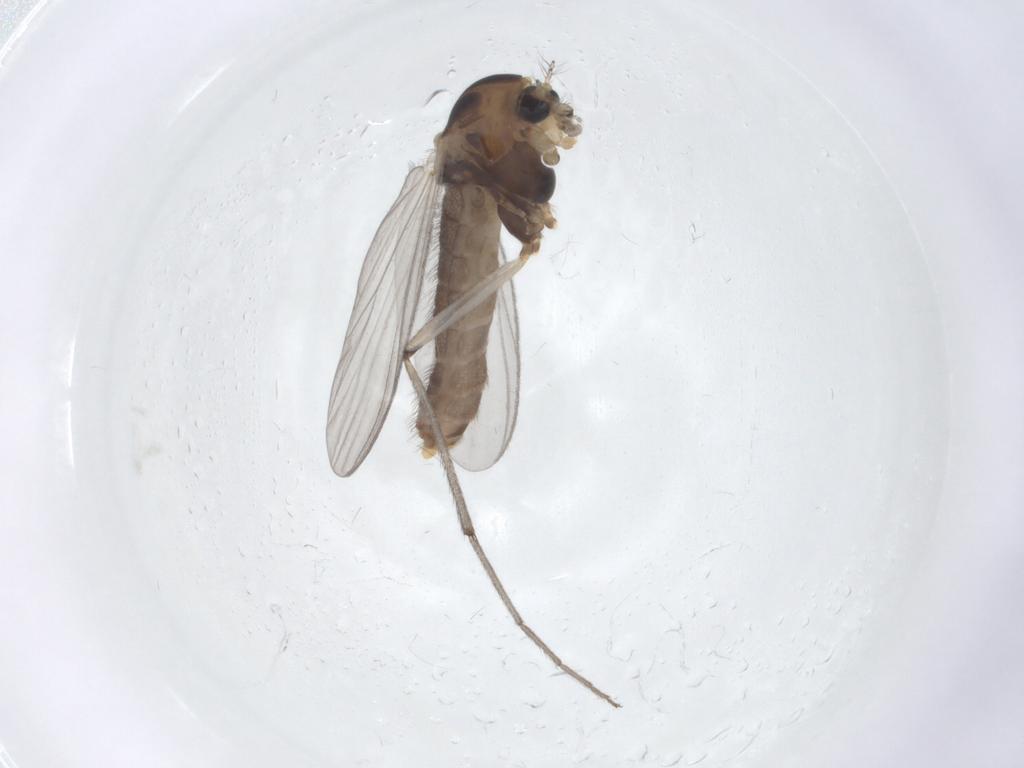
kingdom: Animalia
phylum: Arthropoda
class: Insecta
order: Diptera
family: Chironomidae
